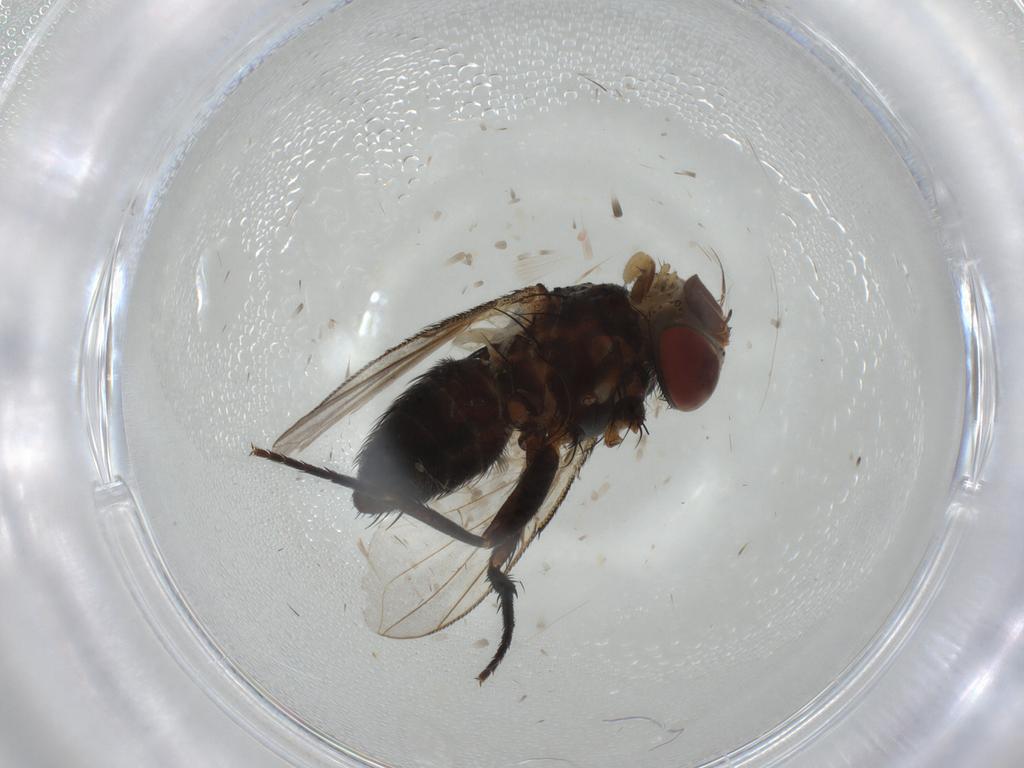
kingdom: Animalia
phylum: Arthropoda
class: Insecta
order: Diptera
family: Tachinidae
